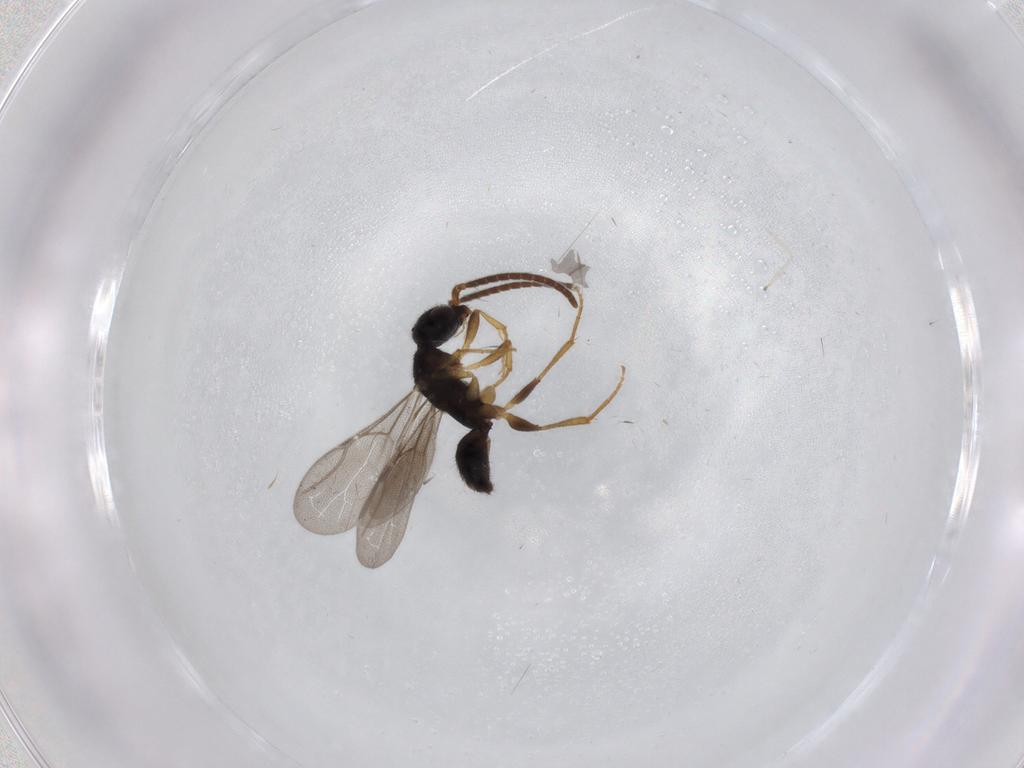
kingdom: Animalia
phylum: Arthropoda
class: Insecta
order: Hymenoptera
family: Bethylidae
